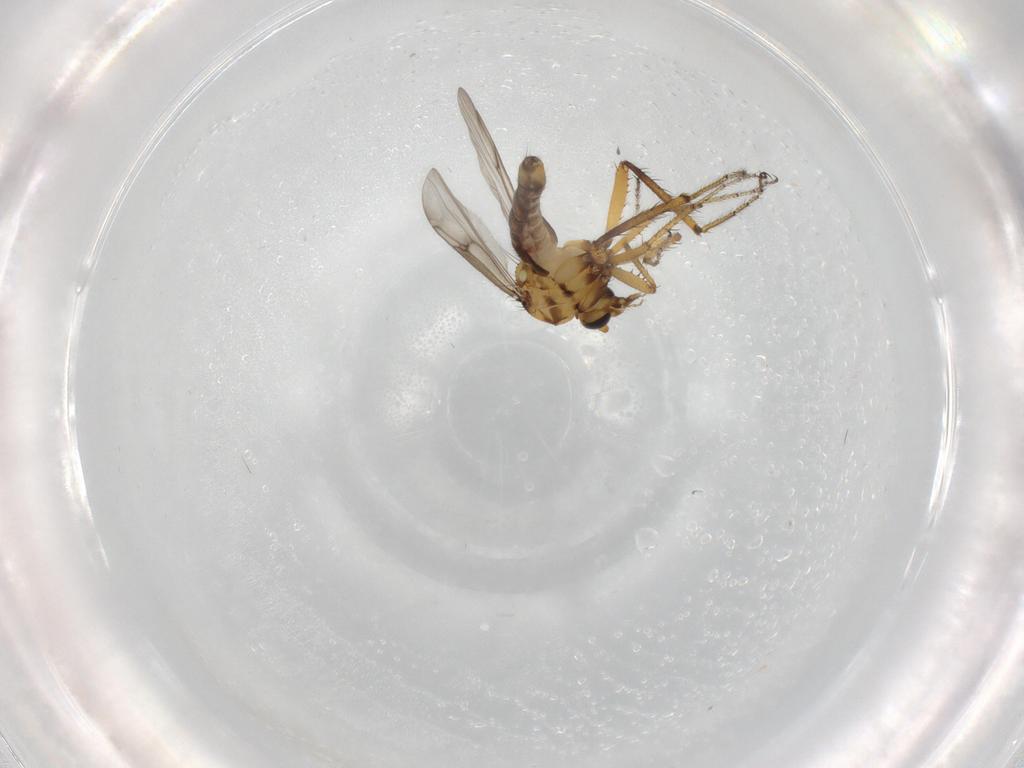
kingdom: Animalia
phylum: Arthropoda
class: Insecta
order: Diptera
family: Ceratopogonidae
